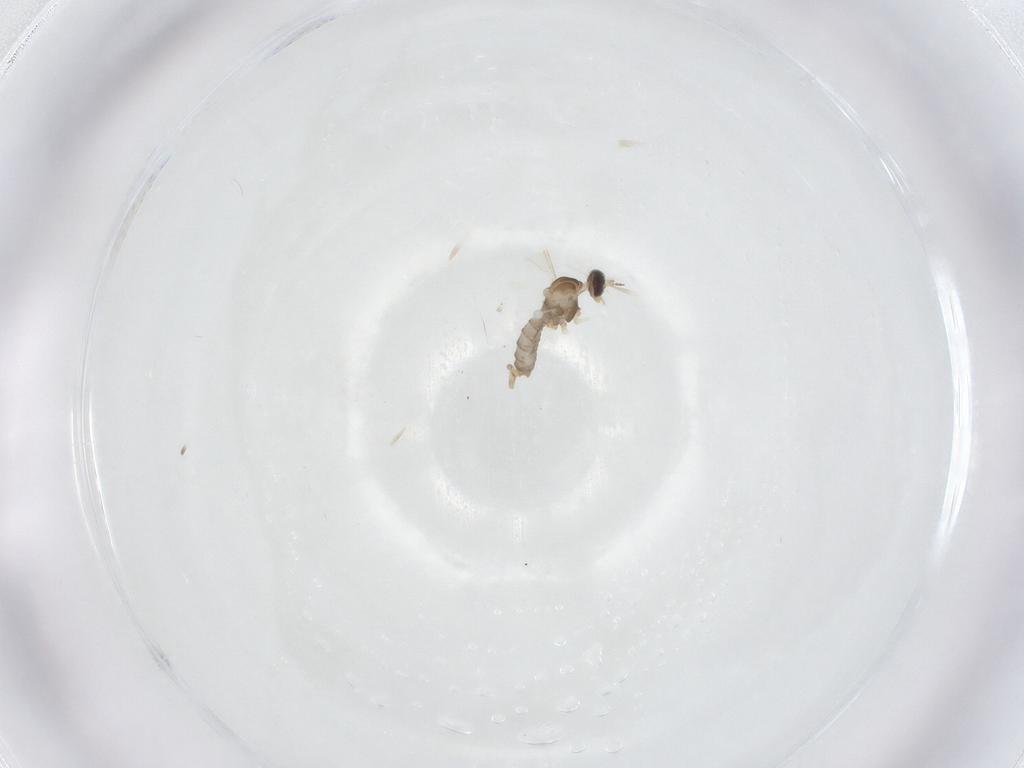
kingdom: Animalia
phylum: Arthropoda
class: Insecta
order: Diptera
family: Cecidomyiidae
